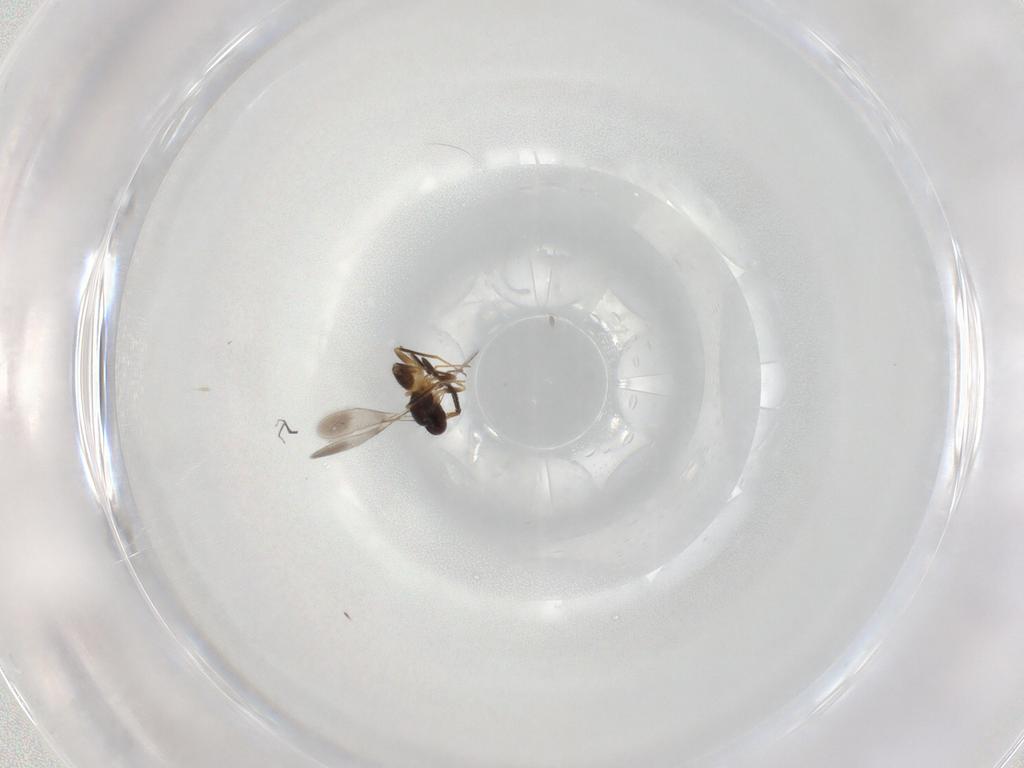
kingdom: Animalia
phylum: Arthropoda
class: Insecta
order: Hymenoptera
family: Mymaridae
